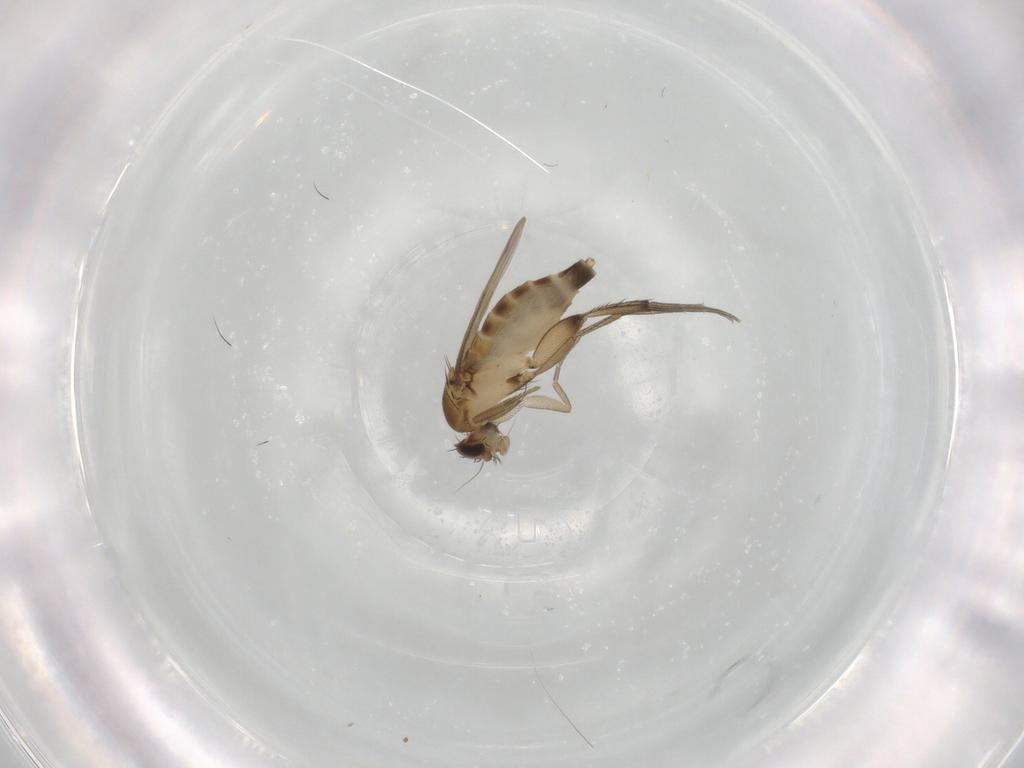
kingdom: Animalia
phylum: Arthropoda
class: Insecta
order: Diptera
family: Phoridae
